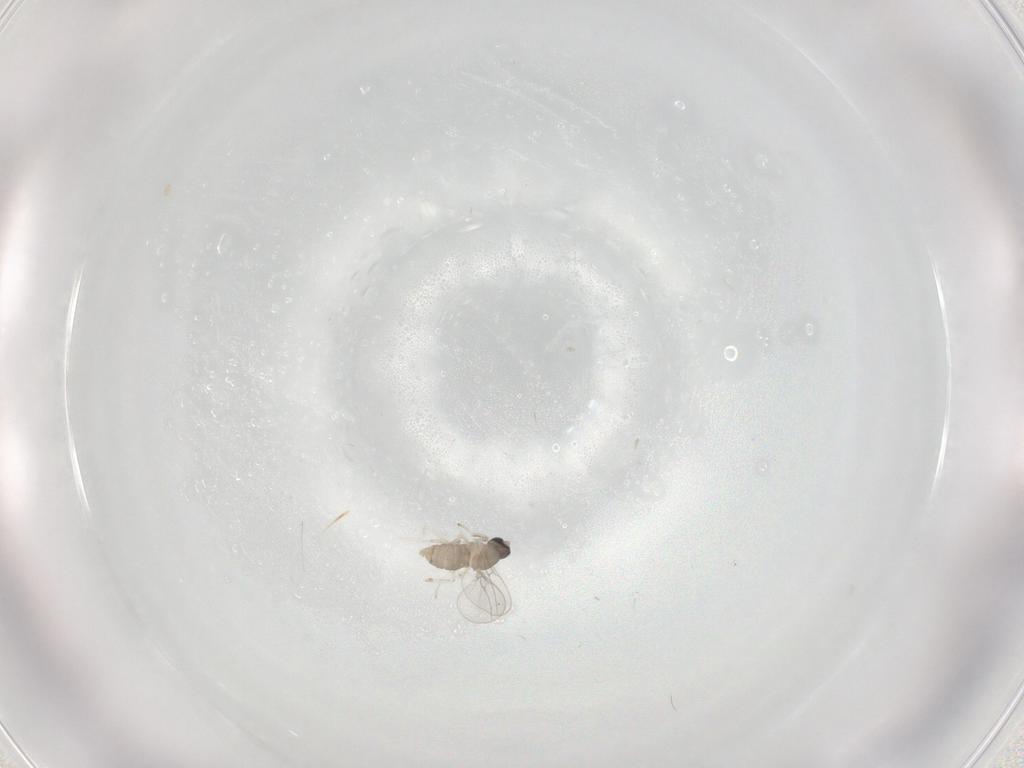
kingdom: Animalia
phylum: Arthropoda
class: Insecta
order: Diptera
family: Cecidomyiidae
